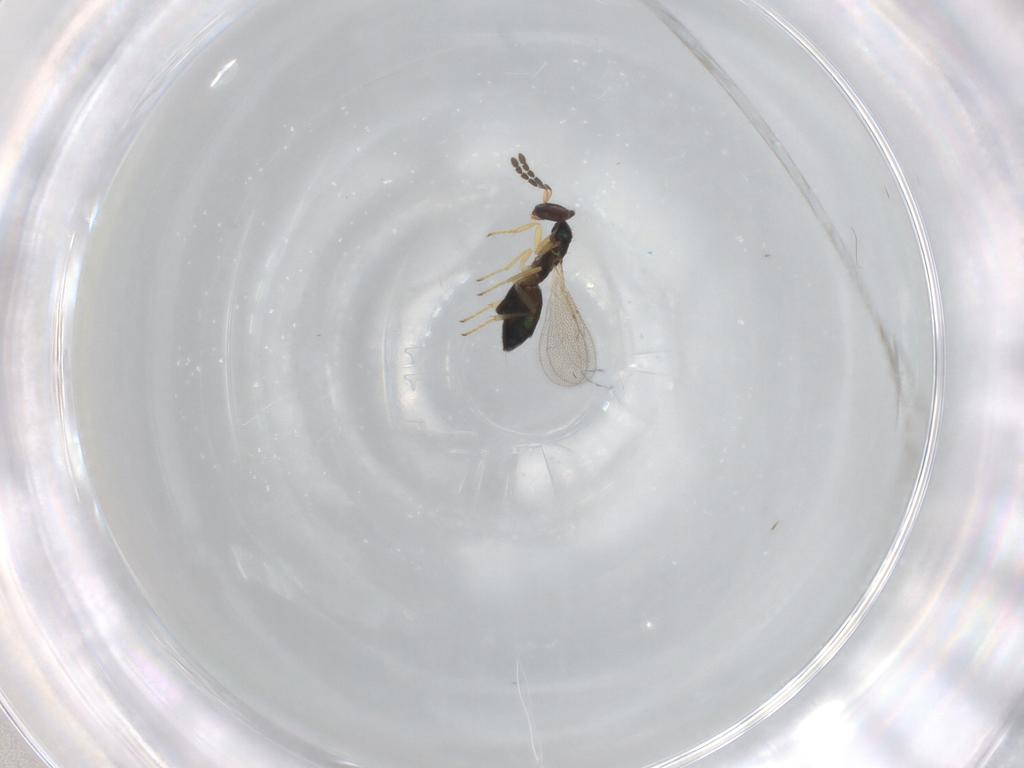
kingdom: Animalia
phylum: Arthropoda
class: Insecta
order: Hymenoptera
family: Eulophidae
